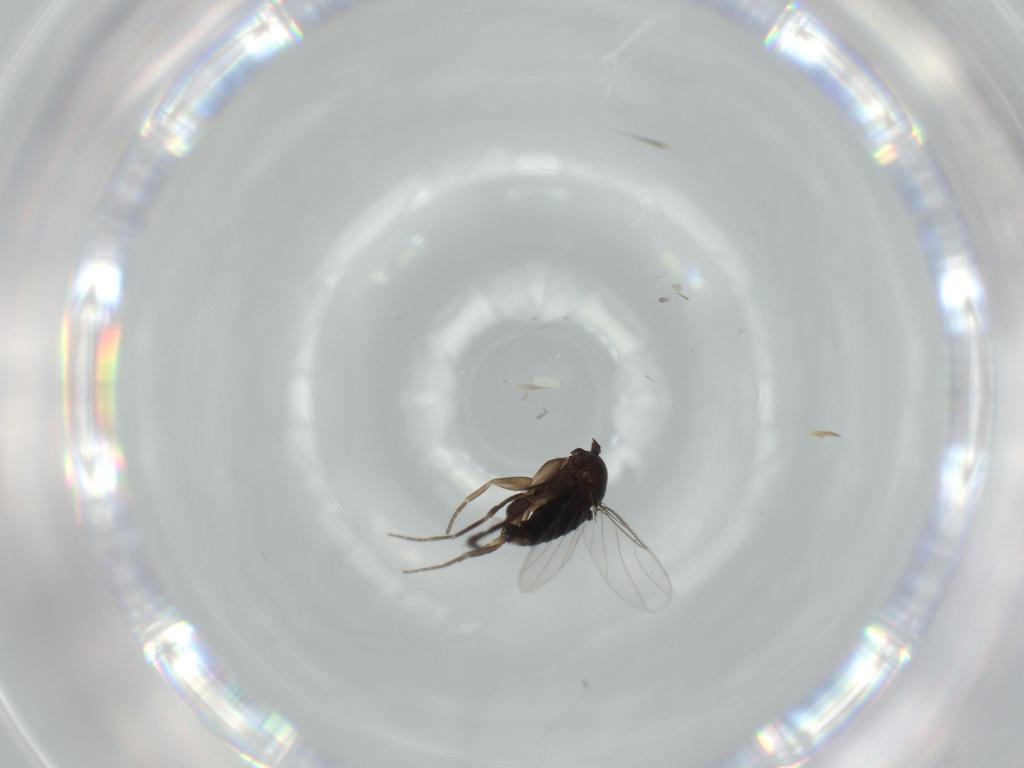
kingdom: Animalia
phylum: Arthropoda
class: Insecta
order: Diptera
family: Phoridae
